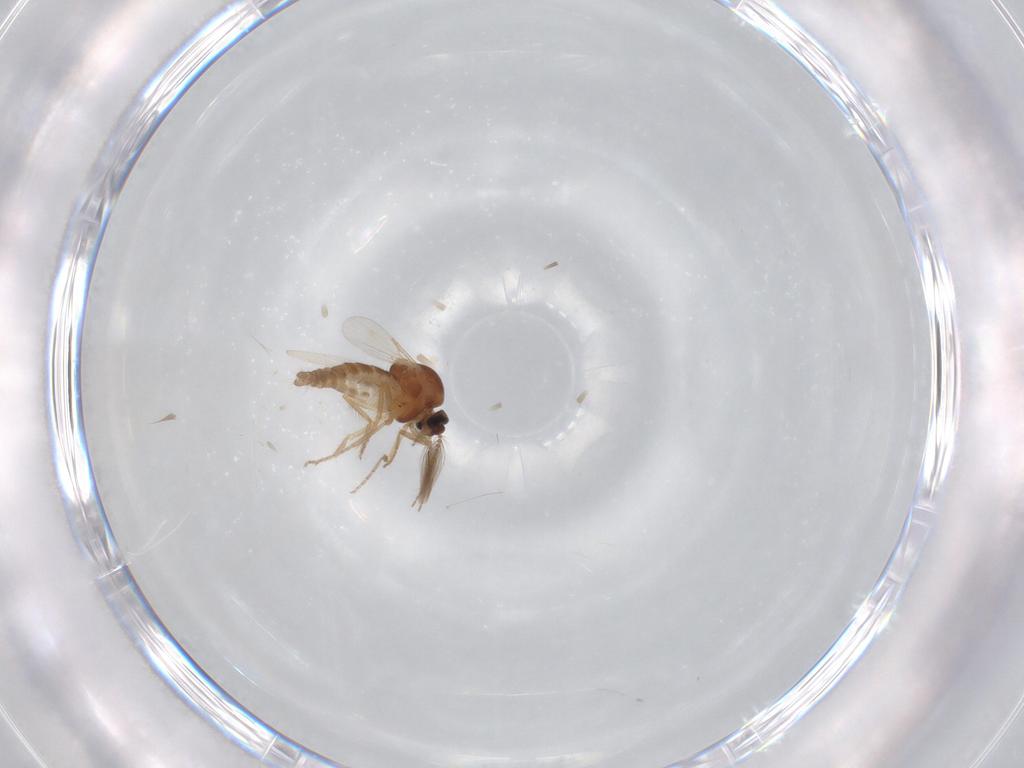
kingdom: Animalia
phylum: Arthropoda
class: Insecta
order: Diptera
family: Ceratopogonidae
